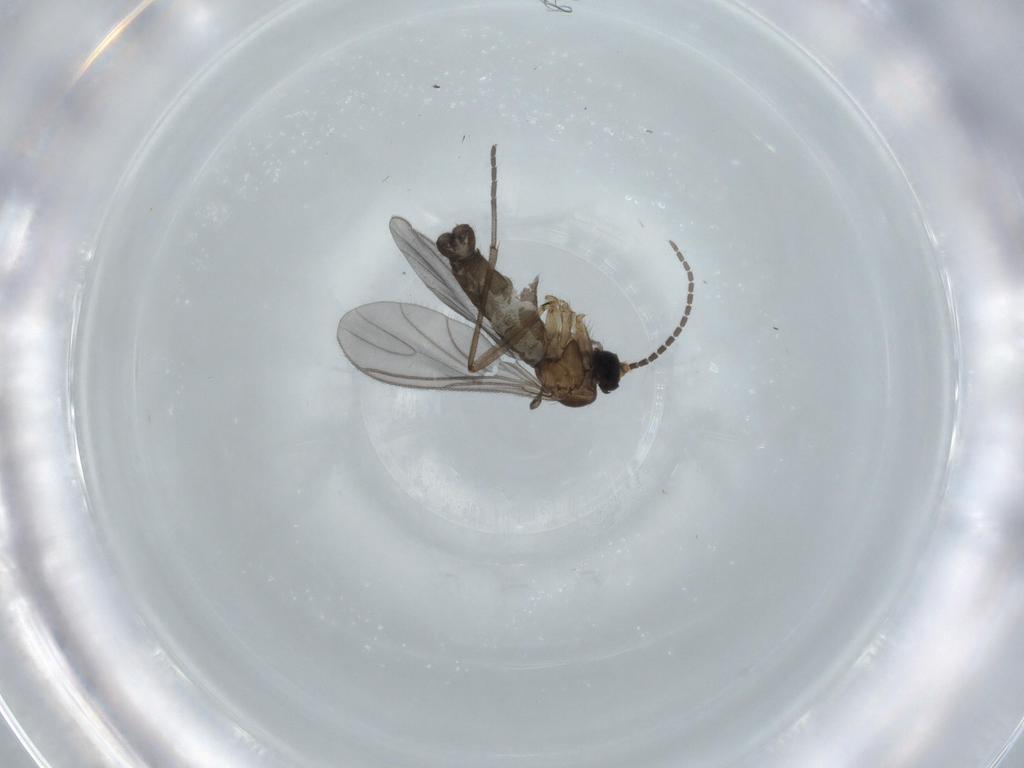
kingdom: Animalia
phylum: Arthropoda
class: Insecta
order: Diptera
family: Sciaridae
